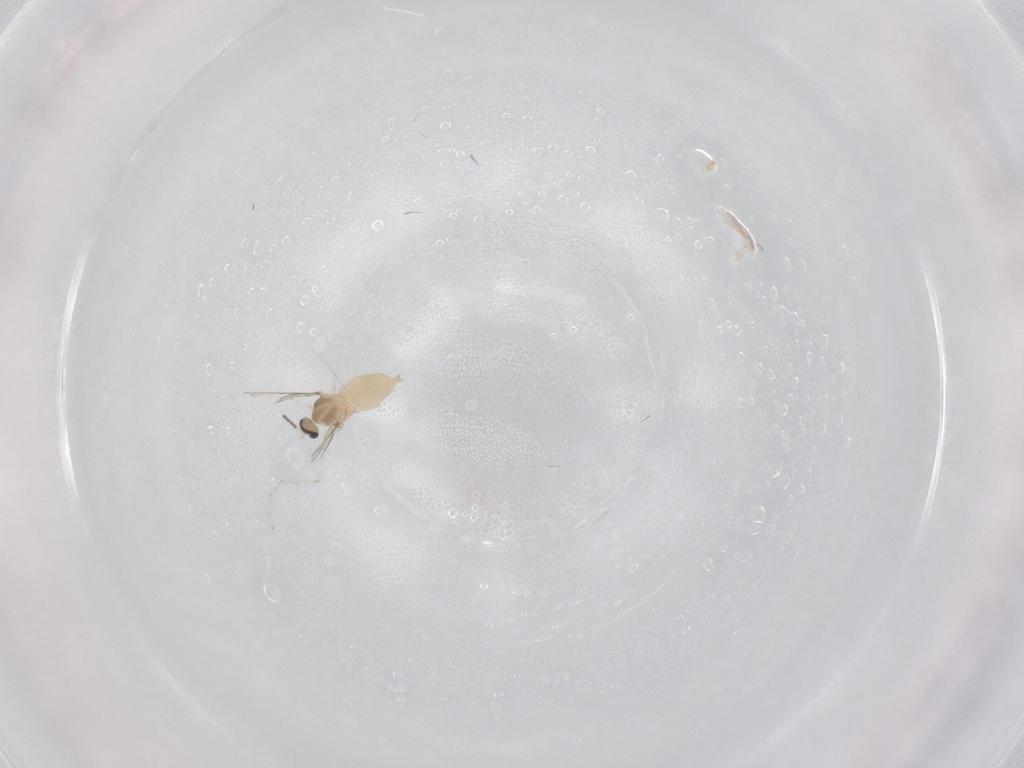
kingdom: Animalia
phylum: Arthropoda
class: Insecta
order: Diptera
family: Cecidomyiidae
